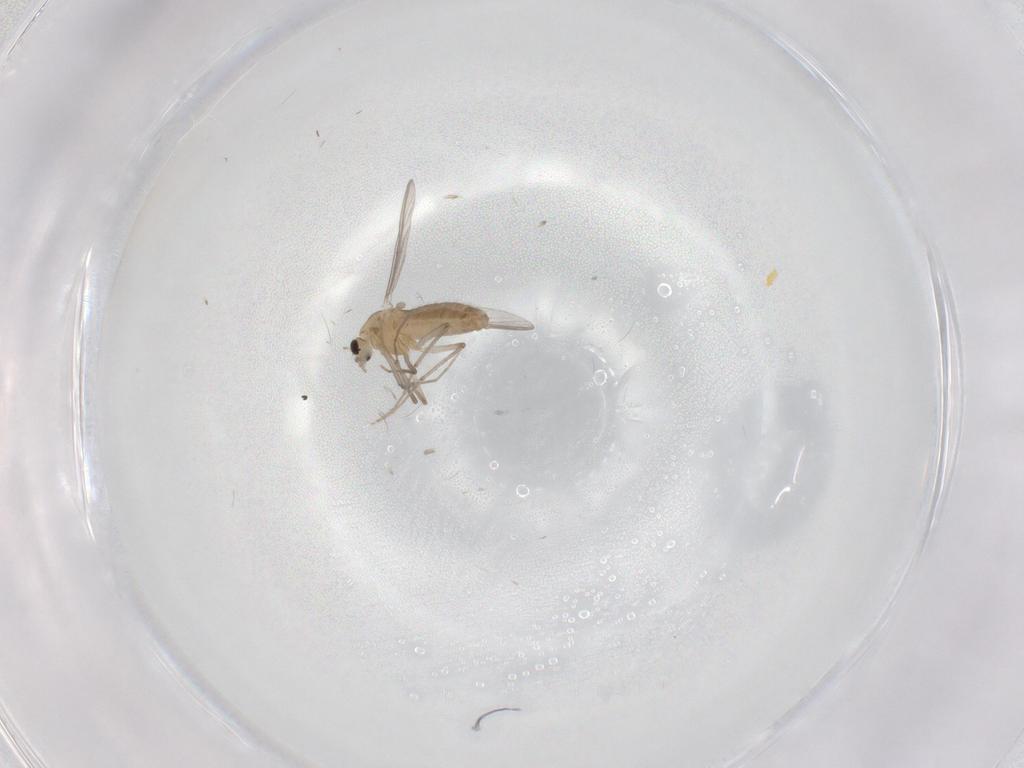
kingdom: Animalia
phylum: Arthropoda
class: Insecta
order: Diptera
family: Chironomidae
